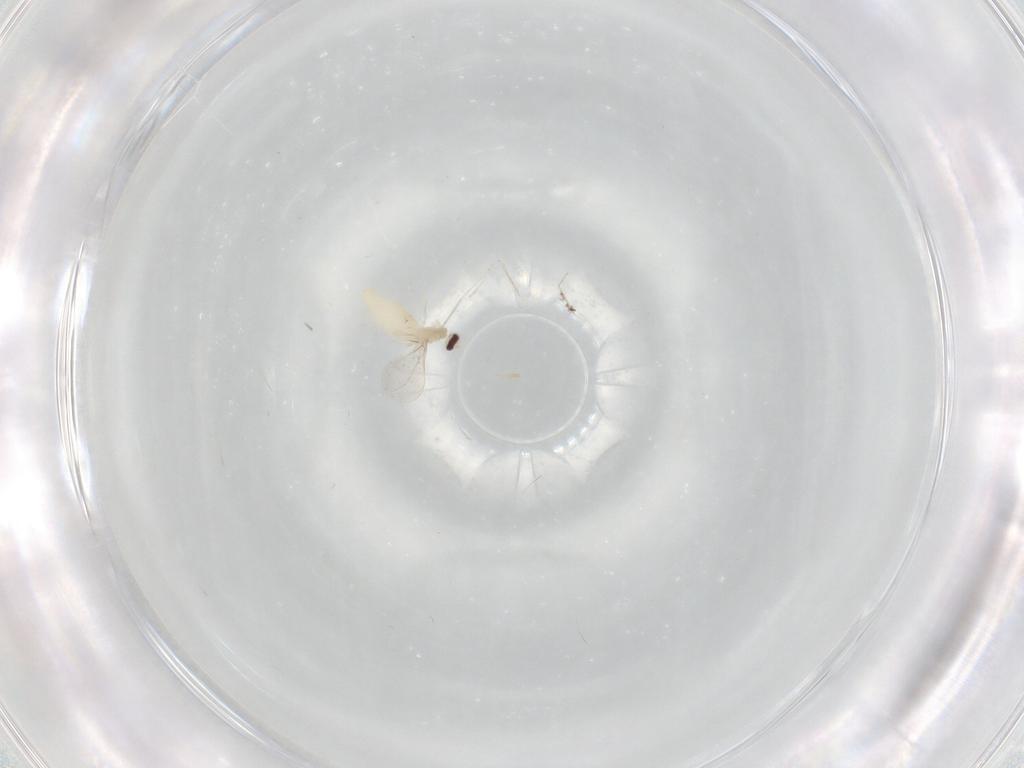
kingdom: Animalia
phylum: Arthropoda
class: Insecta
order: Diptera
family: Cecidomyiidae
